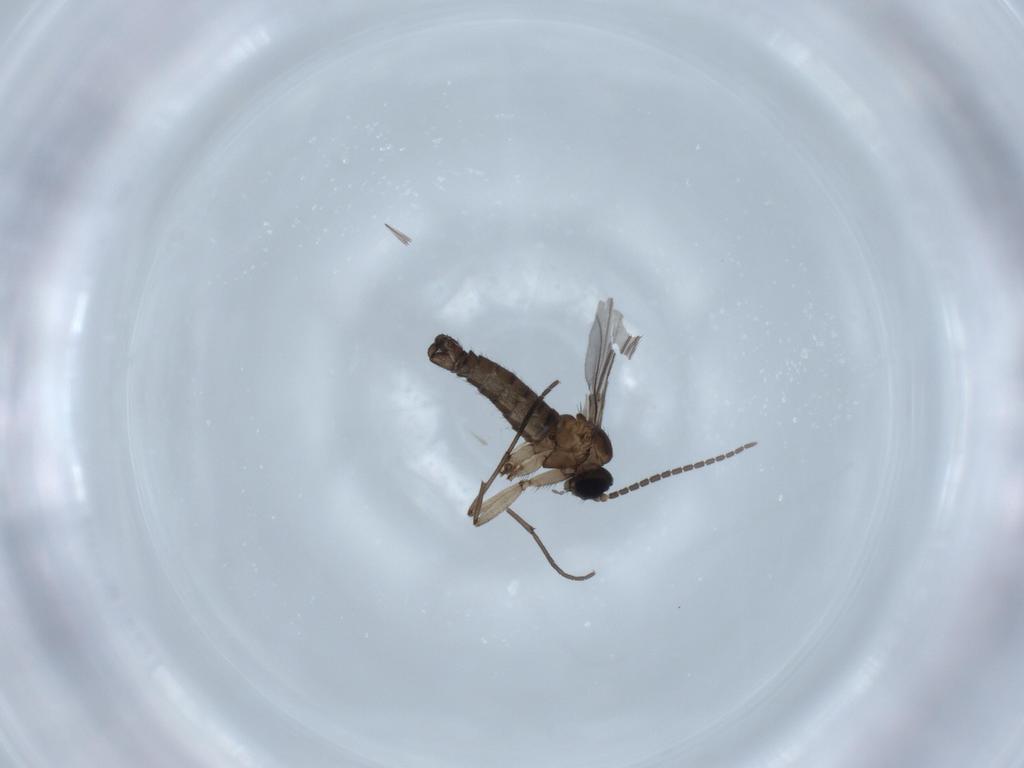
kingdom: Animalia
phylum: Arthropoda
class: Insecta
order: Diptera
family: Sciaridae
